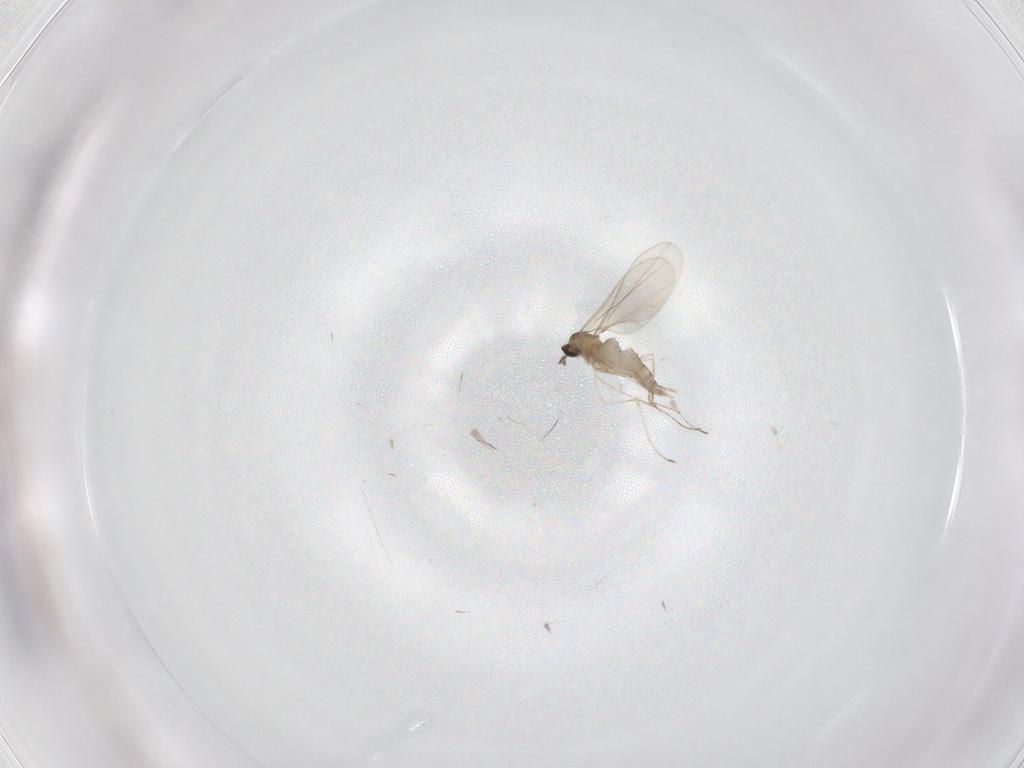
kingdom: Animalia
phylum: Arthropoda
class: Insecta
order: Diptera
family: Cecidomyiidae
